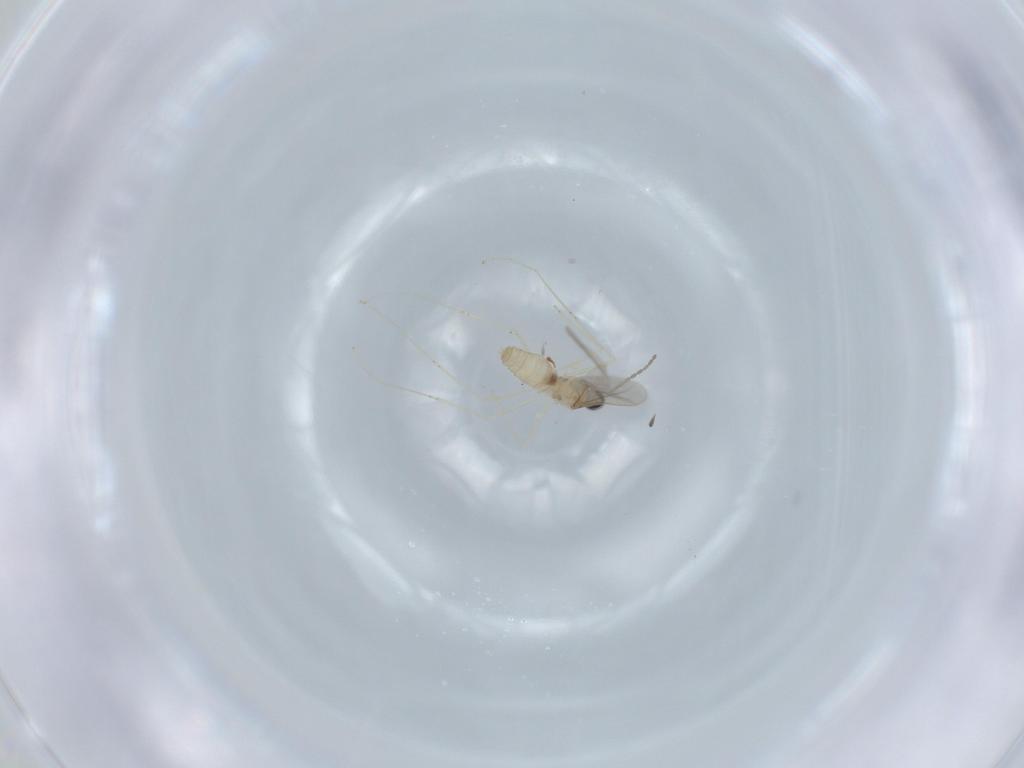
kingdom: Animalia
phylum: Arthropoda
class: Insecta
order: Diptera
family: Cecidomyiidae
